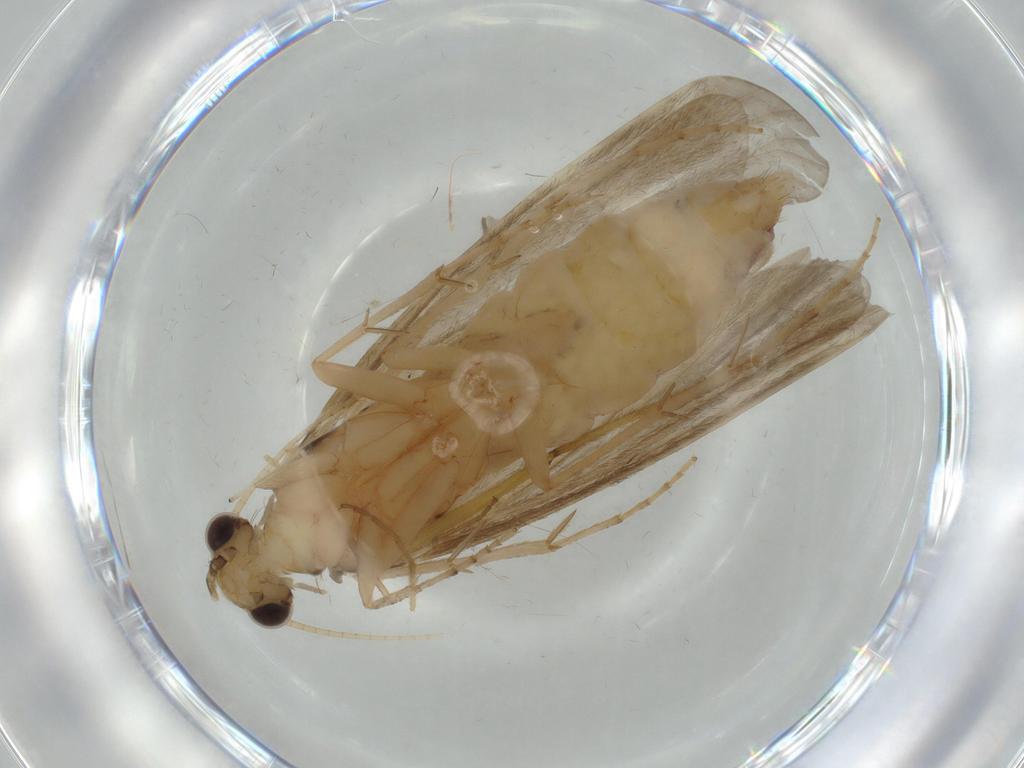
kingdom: Animalia
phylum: Arthropoda
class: Insecta
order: Trichoptera
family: Ecnomidae
